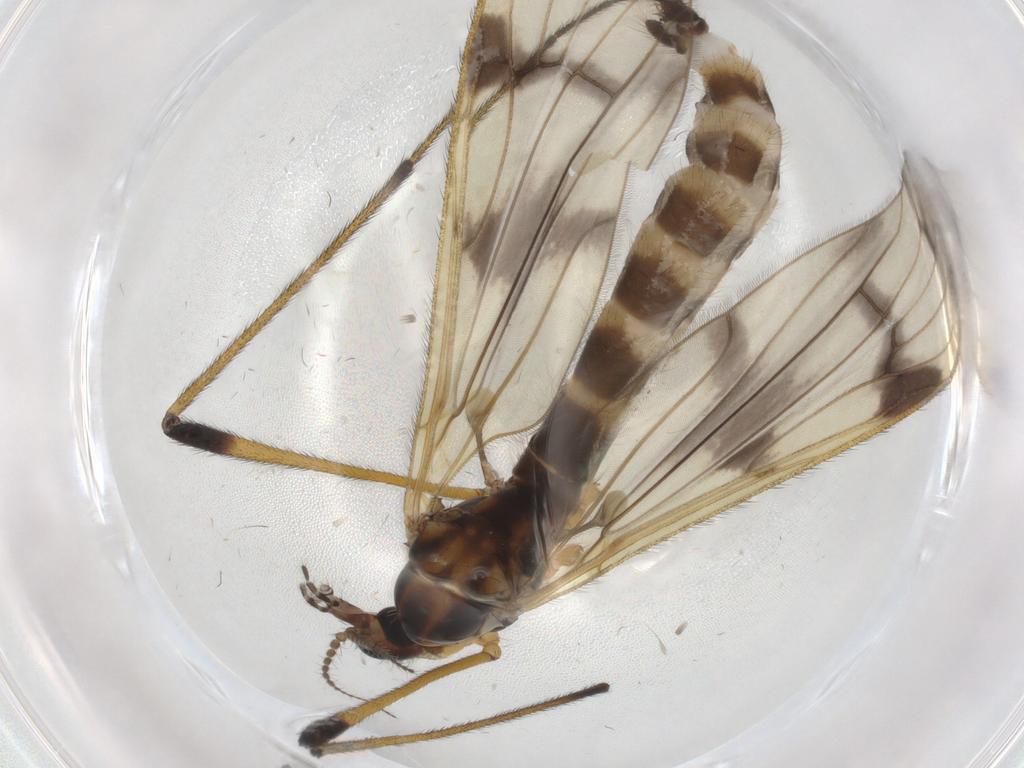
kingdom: Animalia
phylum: Arthropoda
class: Insecta
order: Diptera
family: Limoniidae
